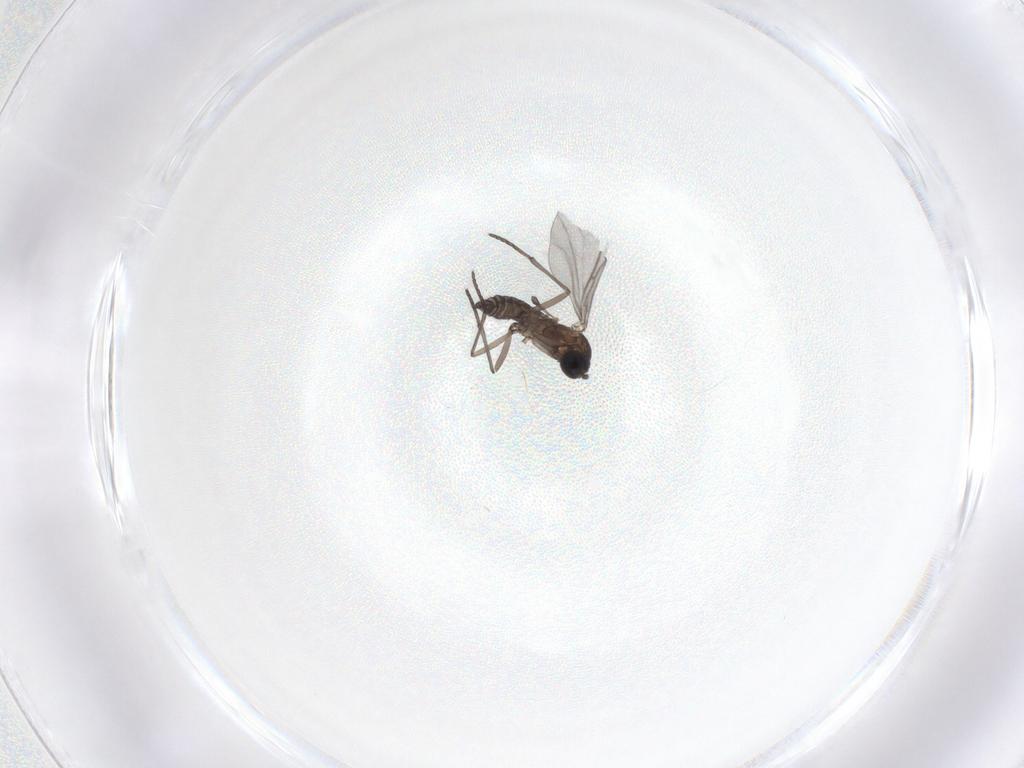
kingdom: Animalia
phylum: Arthropoda
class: Insecta
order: Diptera
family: Sciaridae
